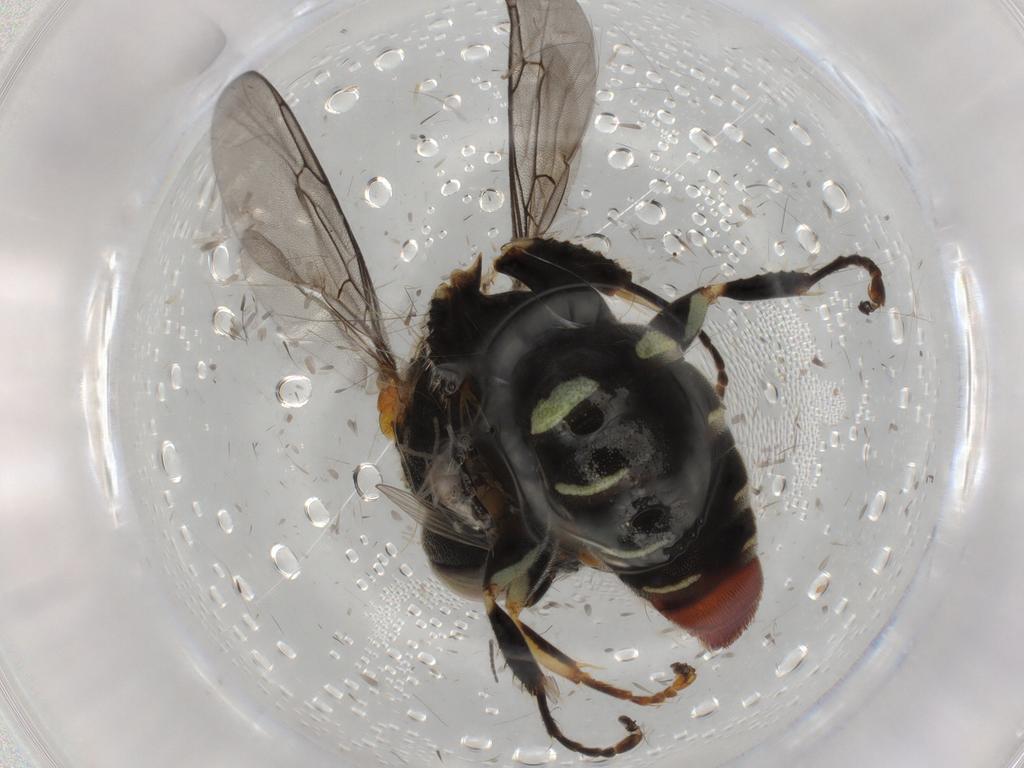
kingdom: Animalia
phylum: Arthropoda
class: Insecta
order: Hymenoptera
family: Crabronidae
